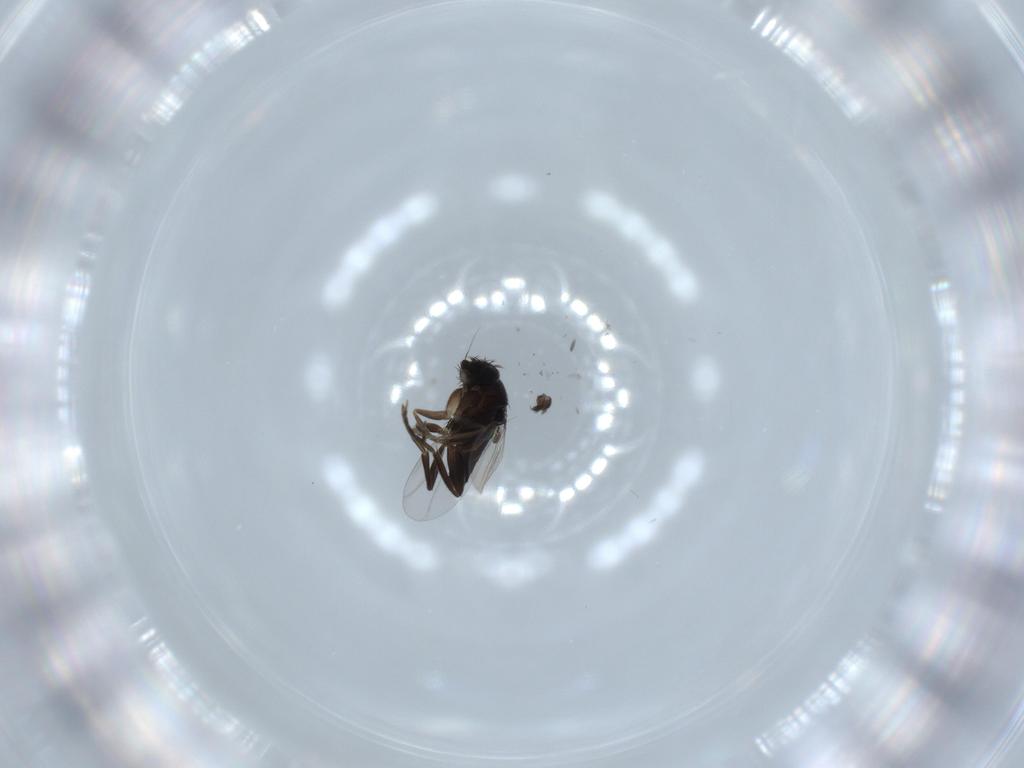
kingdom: Animalia
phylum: Arthropoda
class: Insecta
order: Diptera
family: Phoridae
